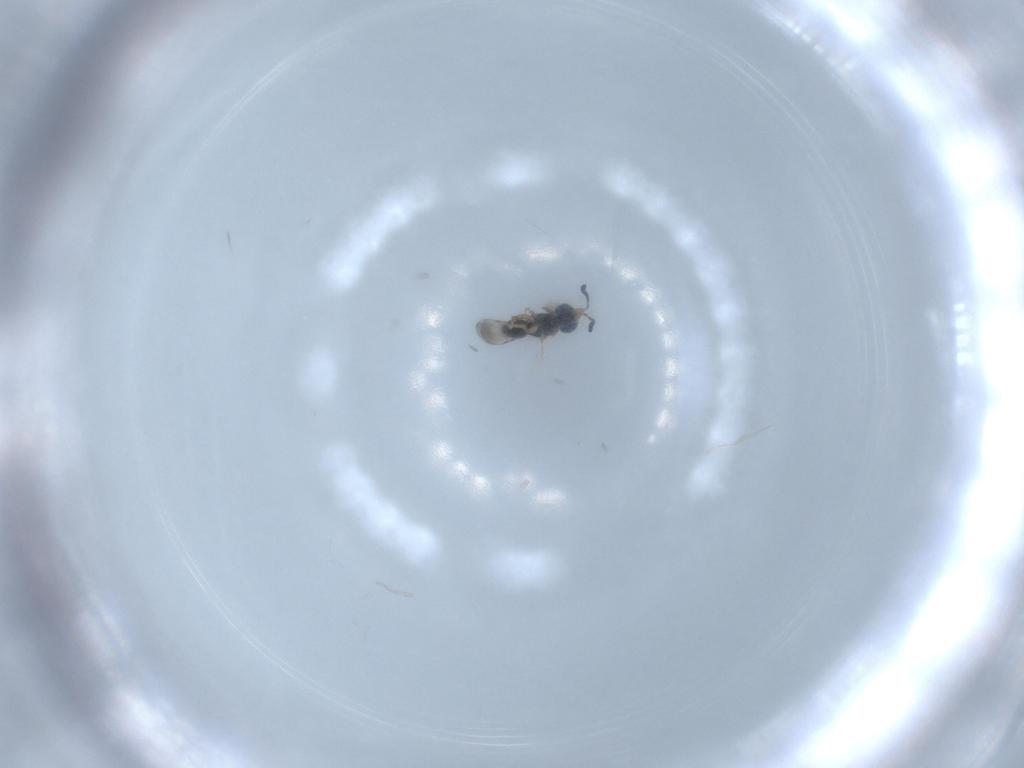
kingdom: Animalia
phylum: Arthropoda
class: Insecta
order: Hymenoptera
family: Ceraphronidae
